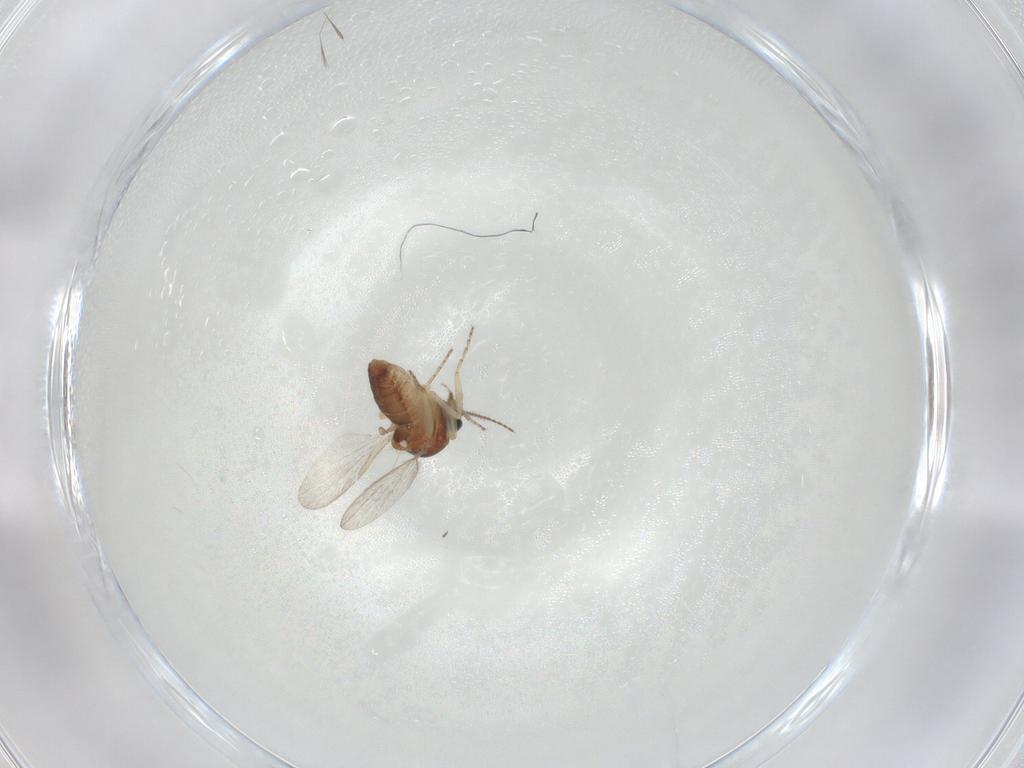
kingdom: Animalia
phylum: Arthropoda
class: Insecta
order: Diptera
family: Ceratopogonidae
